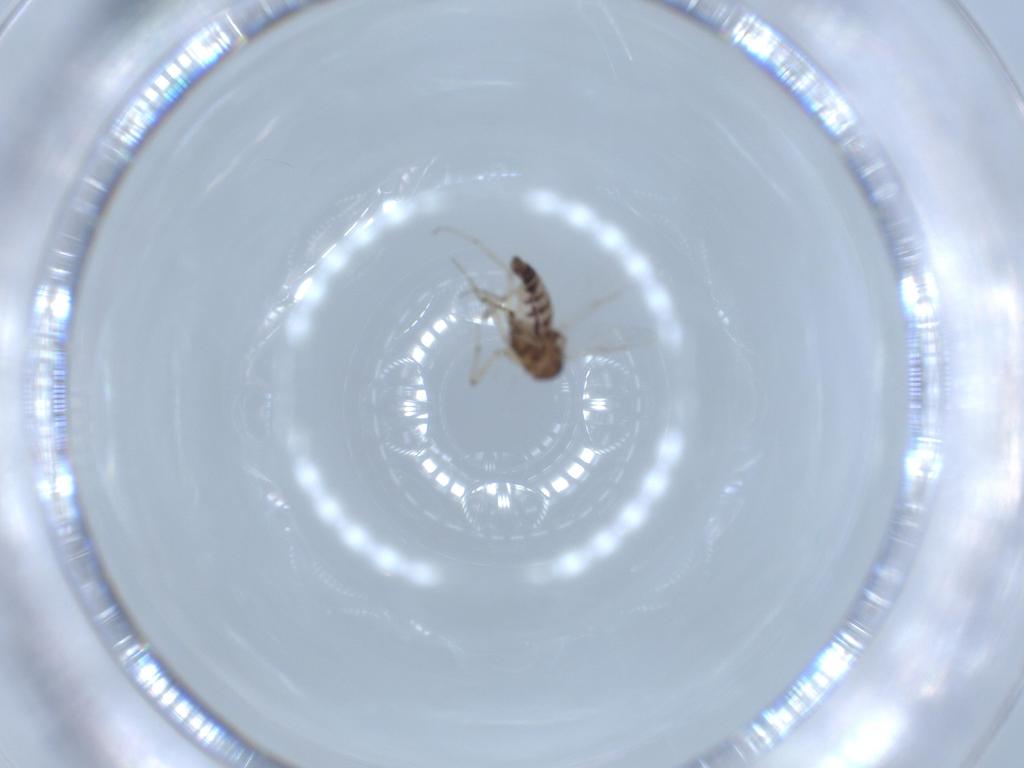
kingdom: Animalia
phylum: Arthropoda
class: Insecta
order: Diptera
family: Ceratopogonidae
